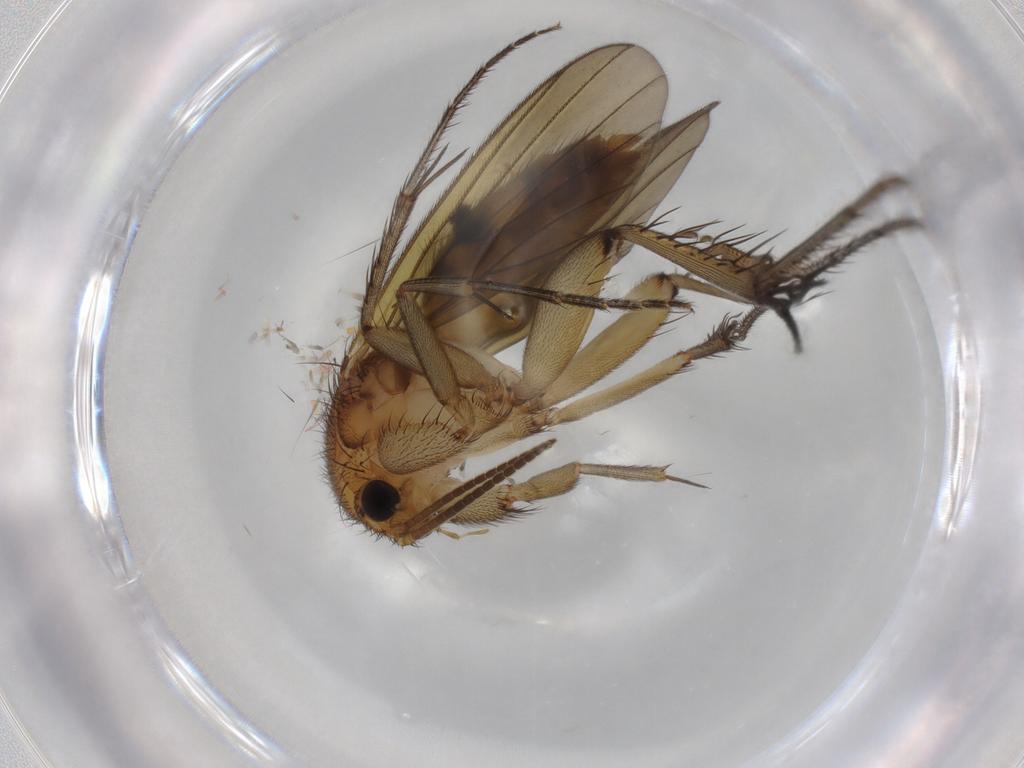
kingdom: Animalia
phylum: Arthropoda
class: Insecta
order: Diptera
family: Mycetophilidae
